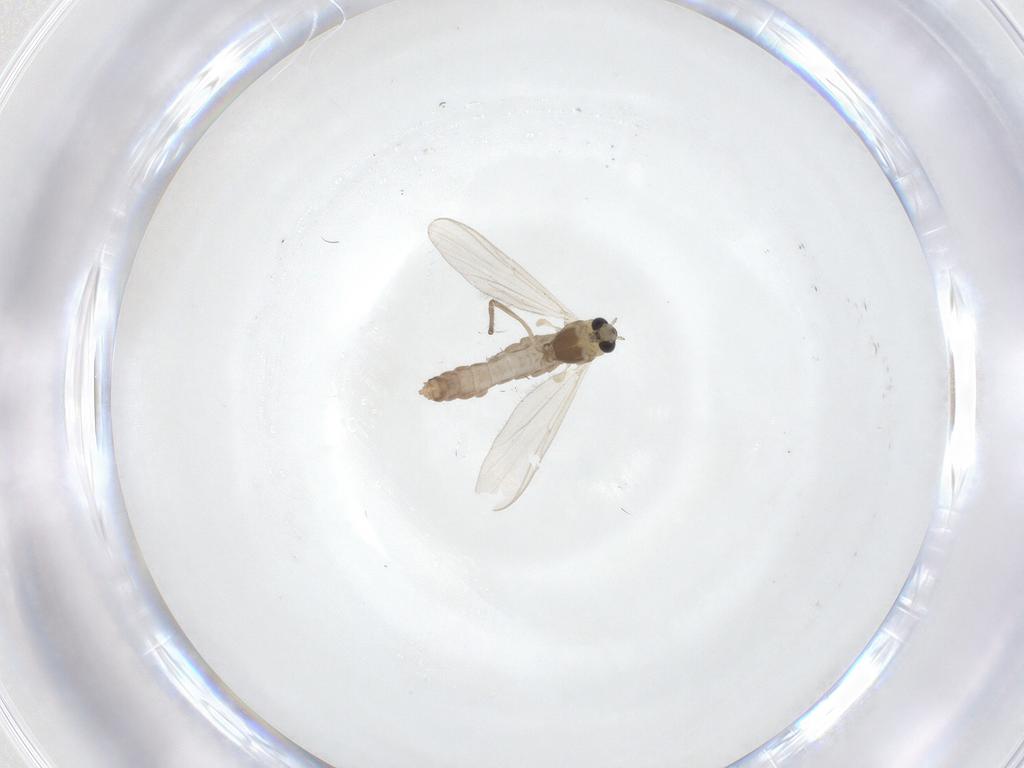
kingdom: Animalia
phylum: Arthropoda
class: Insecta
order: Diptera
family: Chironomidae
